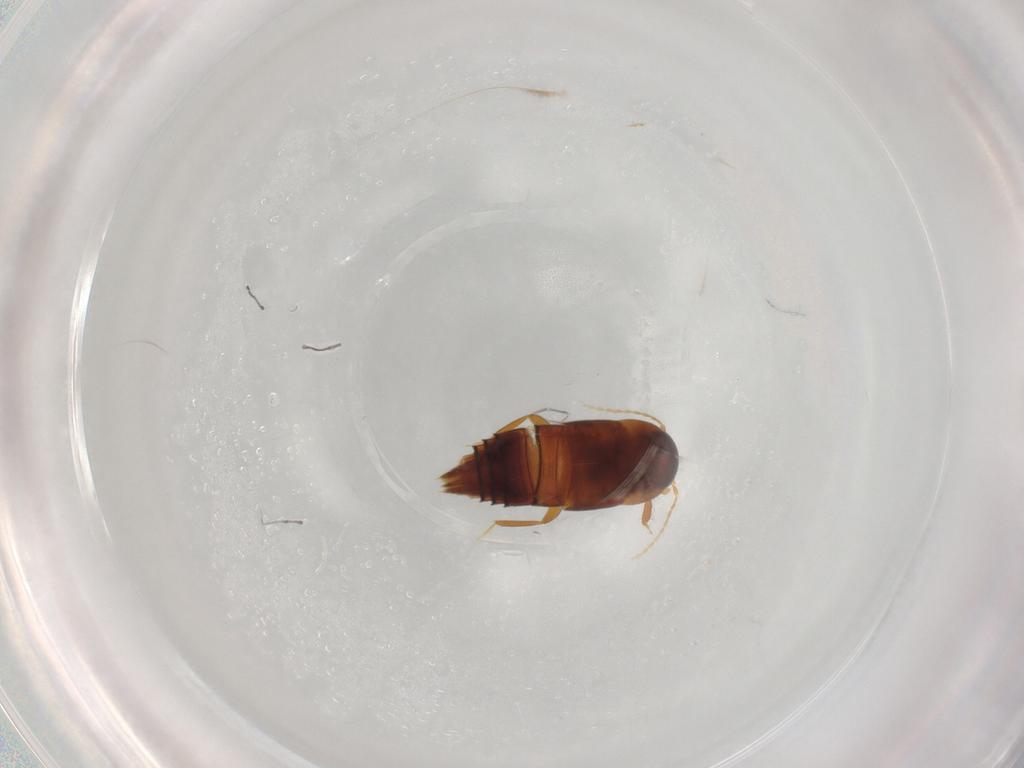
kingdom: Animalia
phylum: Arthropoda
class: Insecta
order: Coleoptera
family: Staphylinidae
